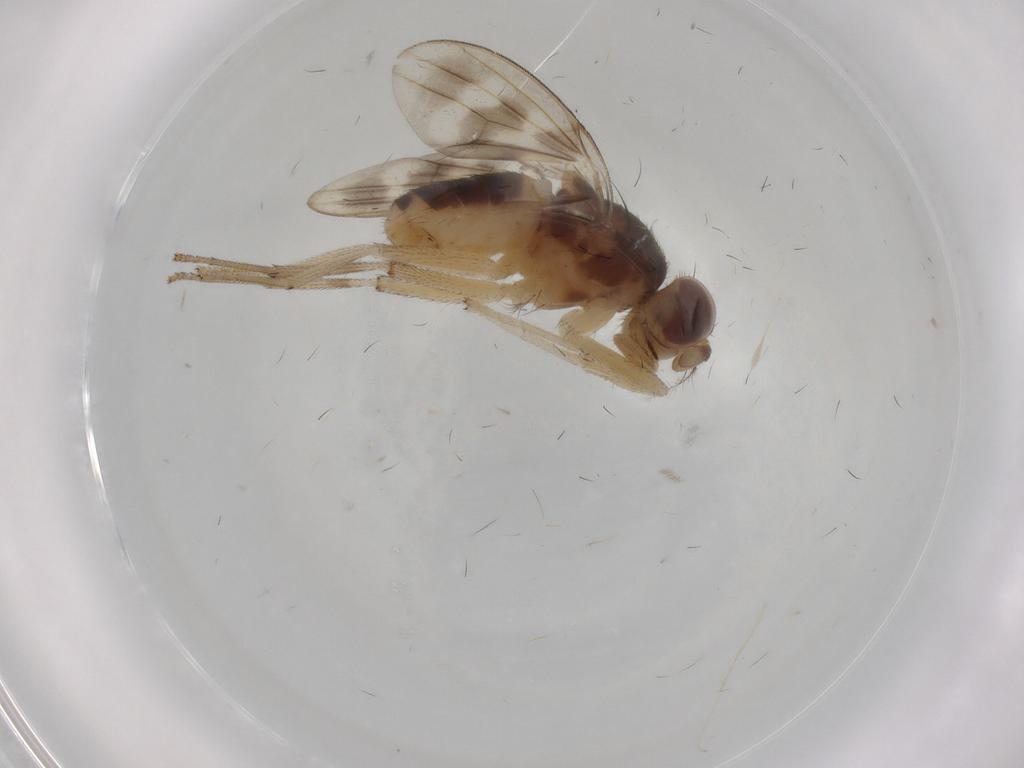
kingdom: Animalia
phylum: Arthropoda
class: Insecta
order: Diptera
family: Cecidomyiidae
